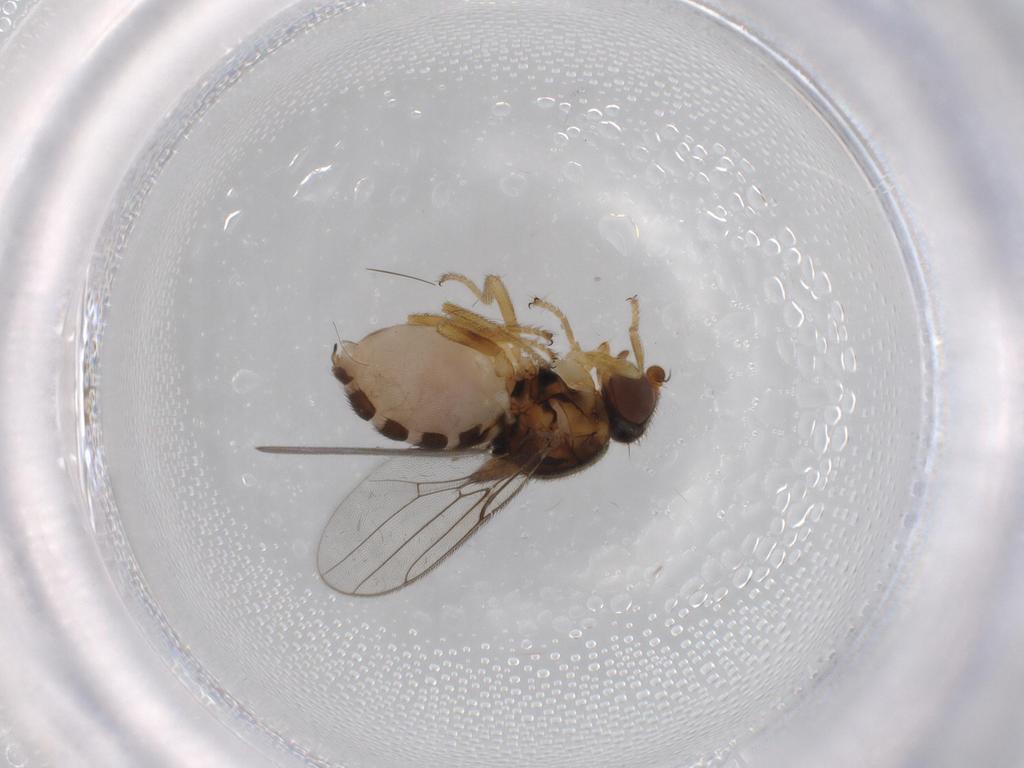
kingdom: Animalia
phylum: Arthropoda
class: Insecta
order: Diptera
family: Chloropidae
